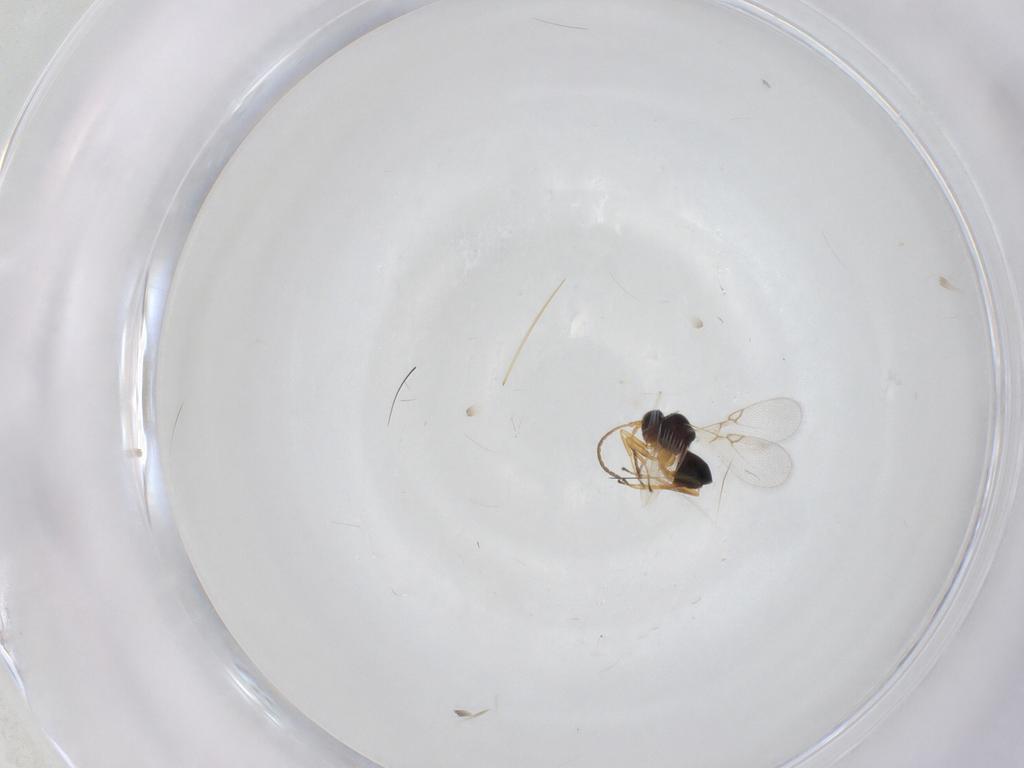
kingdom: Animalia
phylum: Arthropoda
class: Insecta
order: Hymenoptera
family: Figitidae
